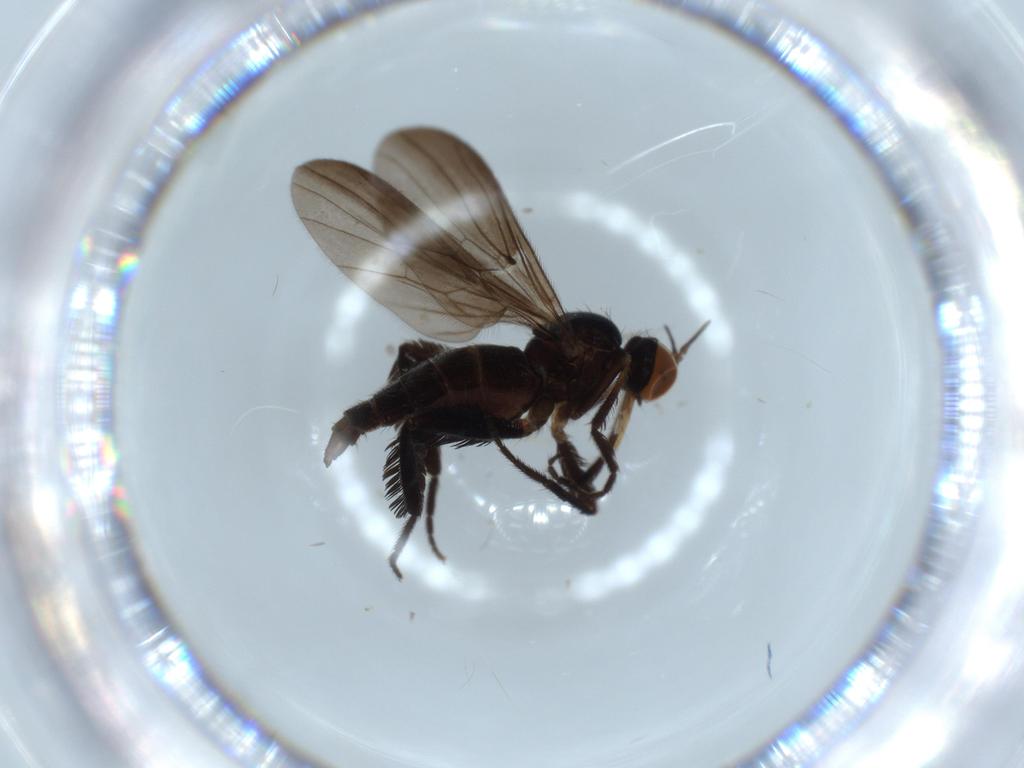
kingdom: Animalia
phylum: Arthropoda
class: Insecta
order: Diptera
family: Empididae
